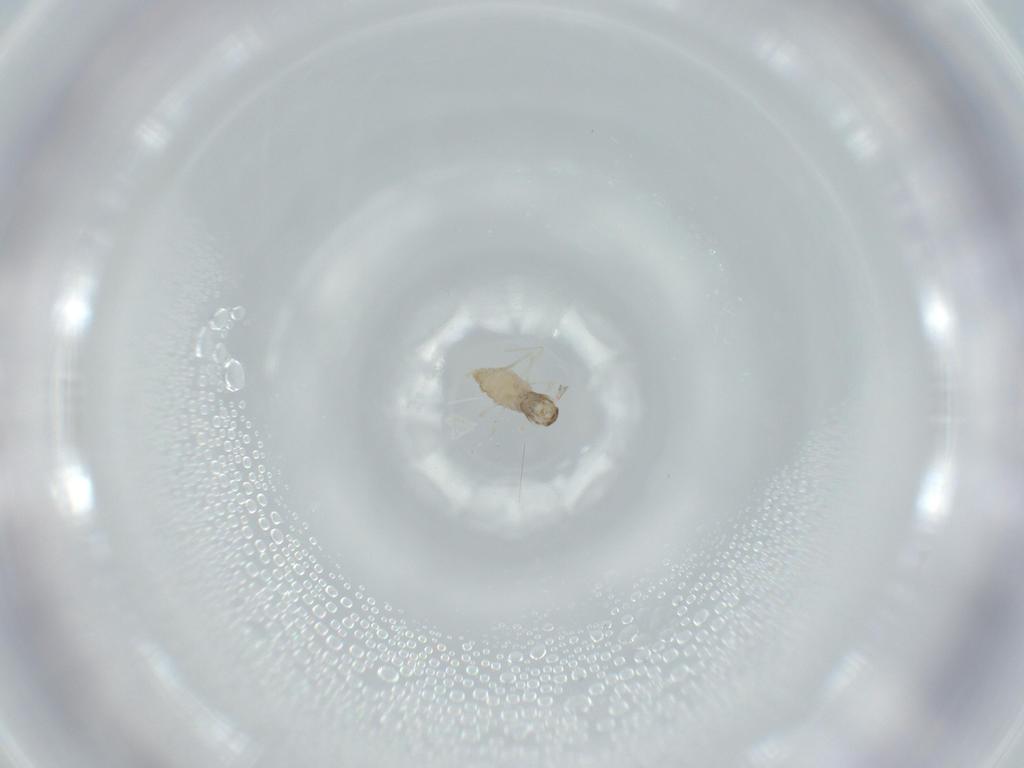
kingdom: Animalia
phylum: Arthropoda
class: Insecta
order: Diptera
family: Cecidomyiidae
